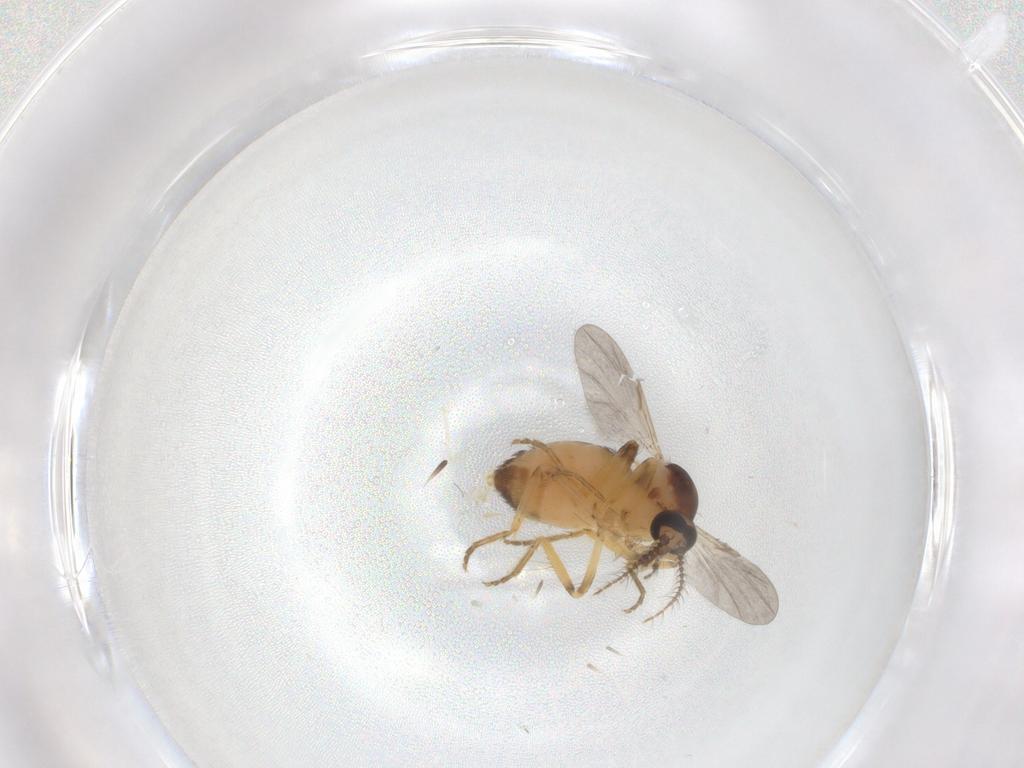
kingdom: Animalia
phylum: Arthropoda
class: Insecta
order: Diptera
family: Ceratopogonidae
